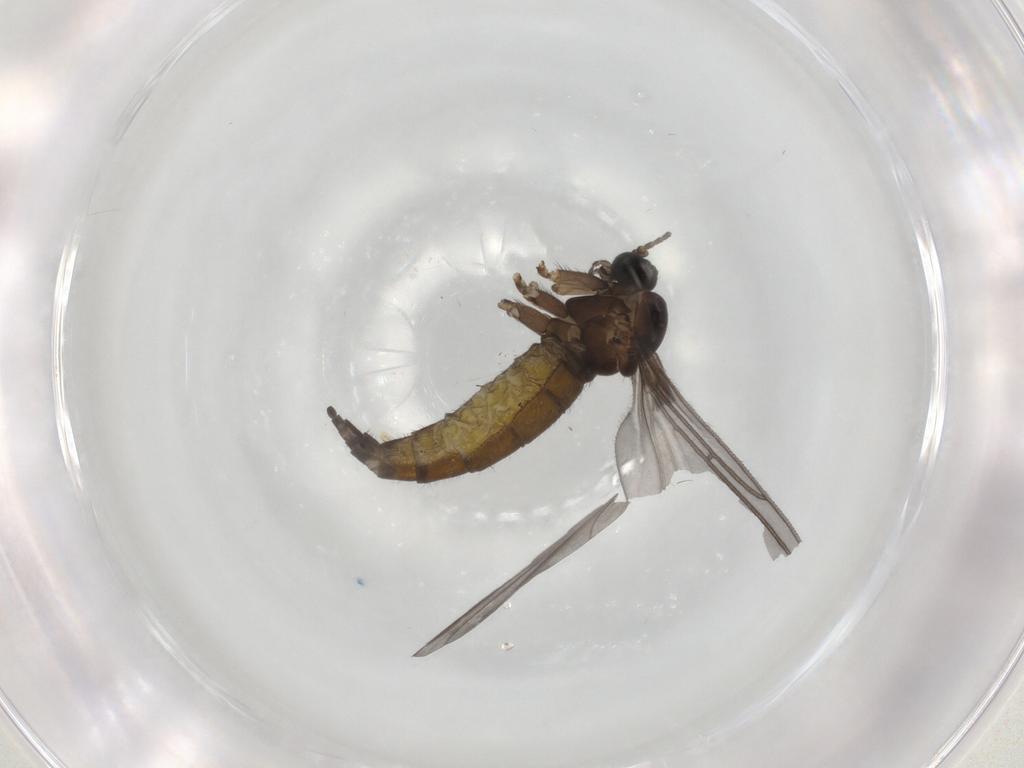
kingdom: Animalia
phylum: Arthropoda
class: Insecta
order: Diptera
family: Sciaridae
